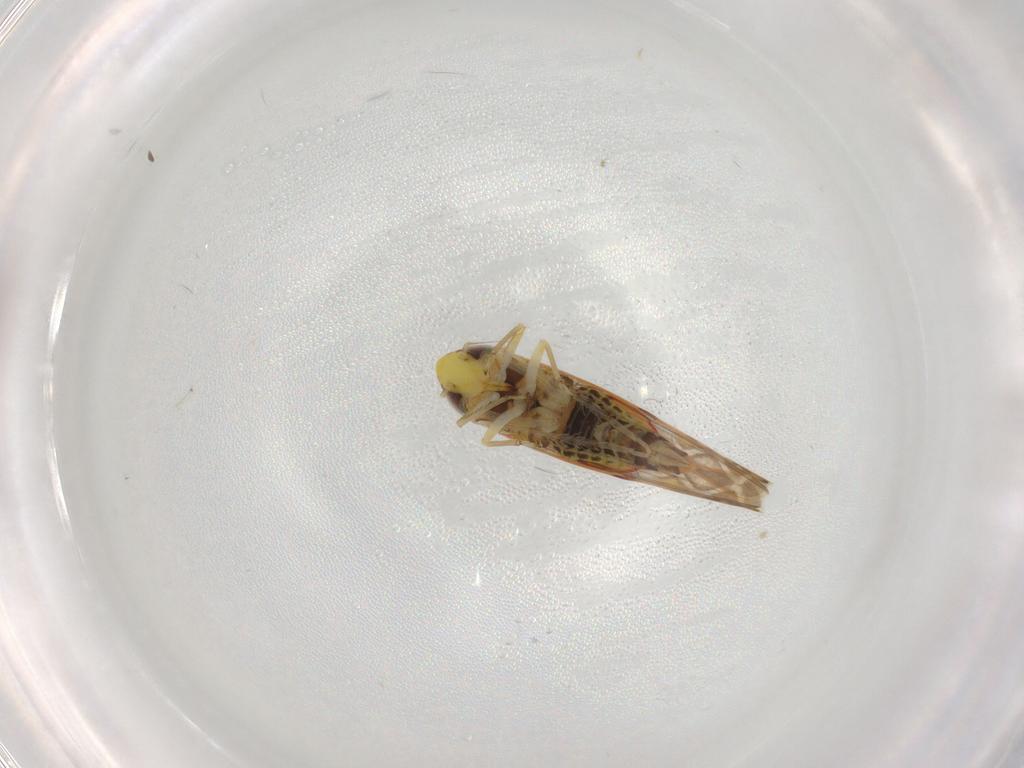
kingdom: Animalia
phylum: Arthropoda
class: Insecta
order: Hemiptera
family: Cicadellidae
